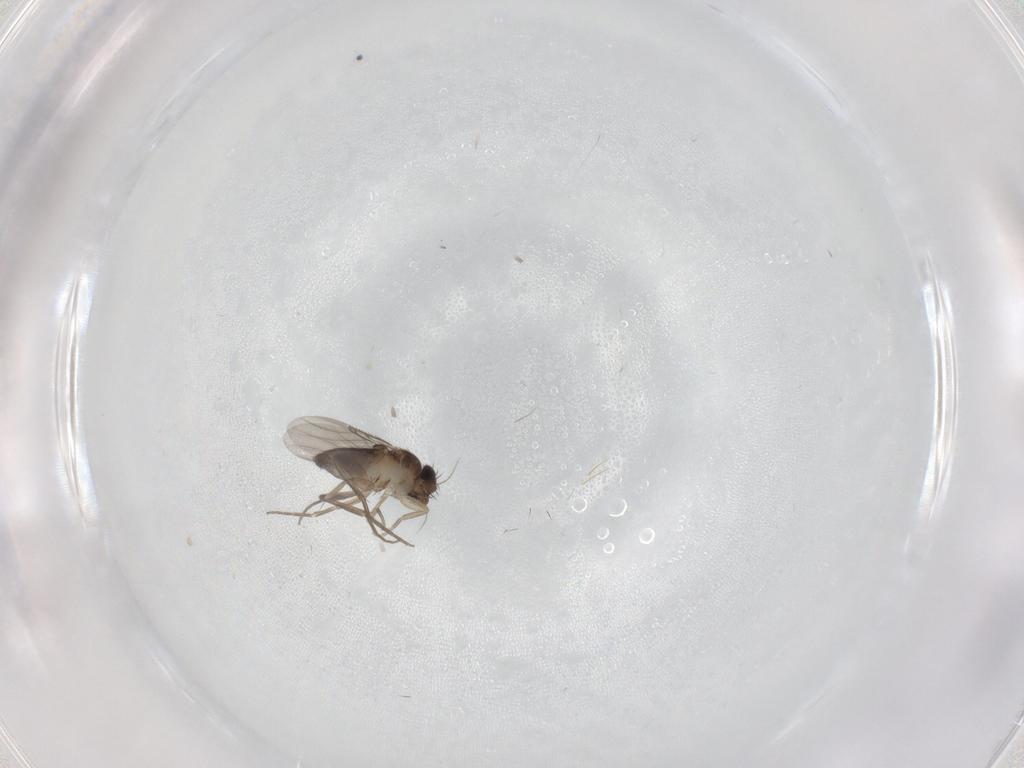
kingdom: Animalia
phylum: Arthropoda
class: Insecta
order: Diptera
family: Phoridae
